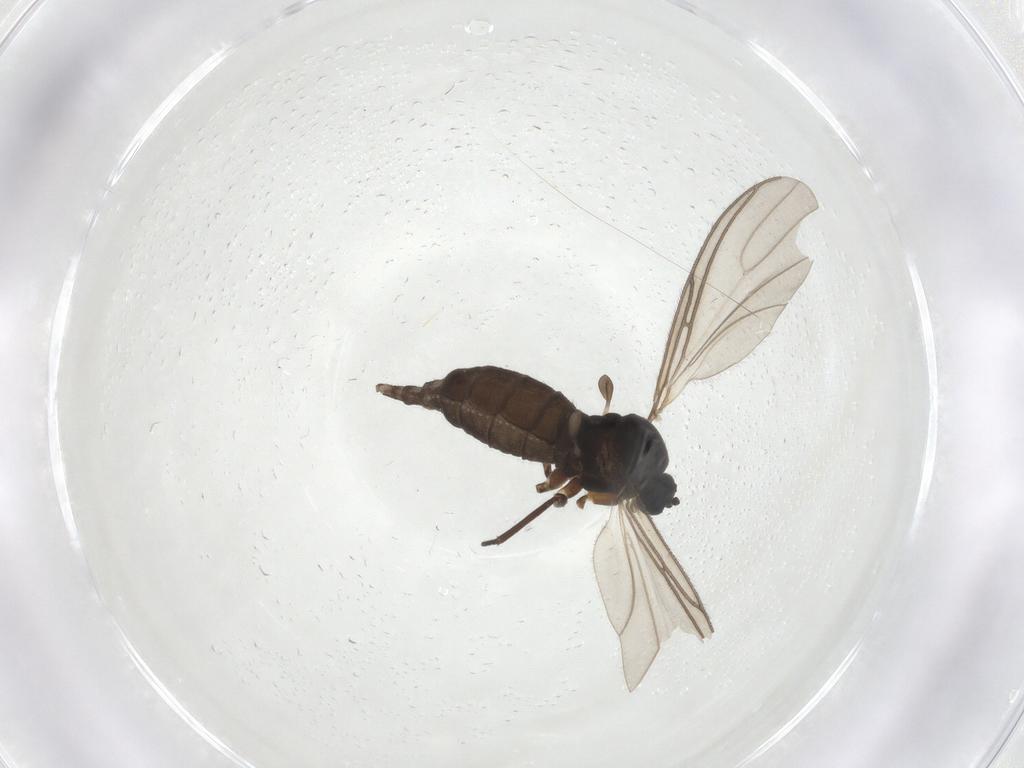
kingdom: Animalia
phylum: Arthropoda
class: Insecta
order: Diptera
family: Sciaridae
